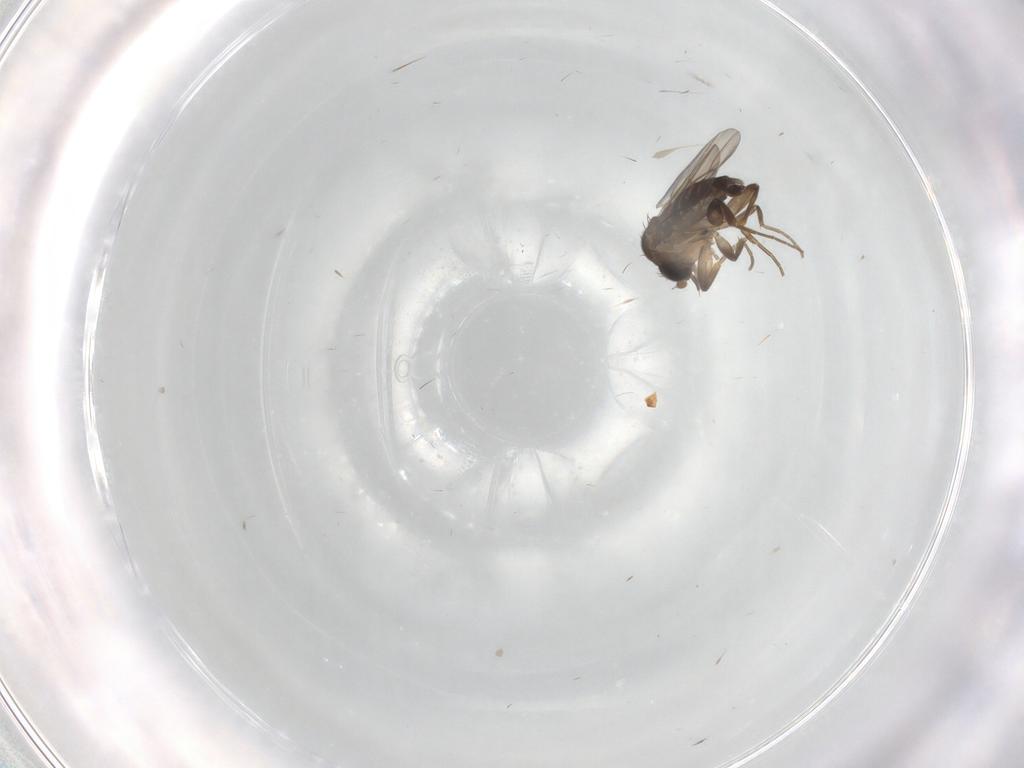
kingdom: Animalia
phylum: Arthropoda
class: Insecta
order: Diptera
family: Phoridae
